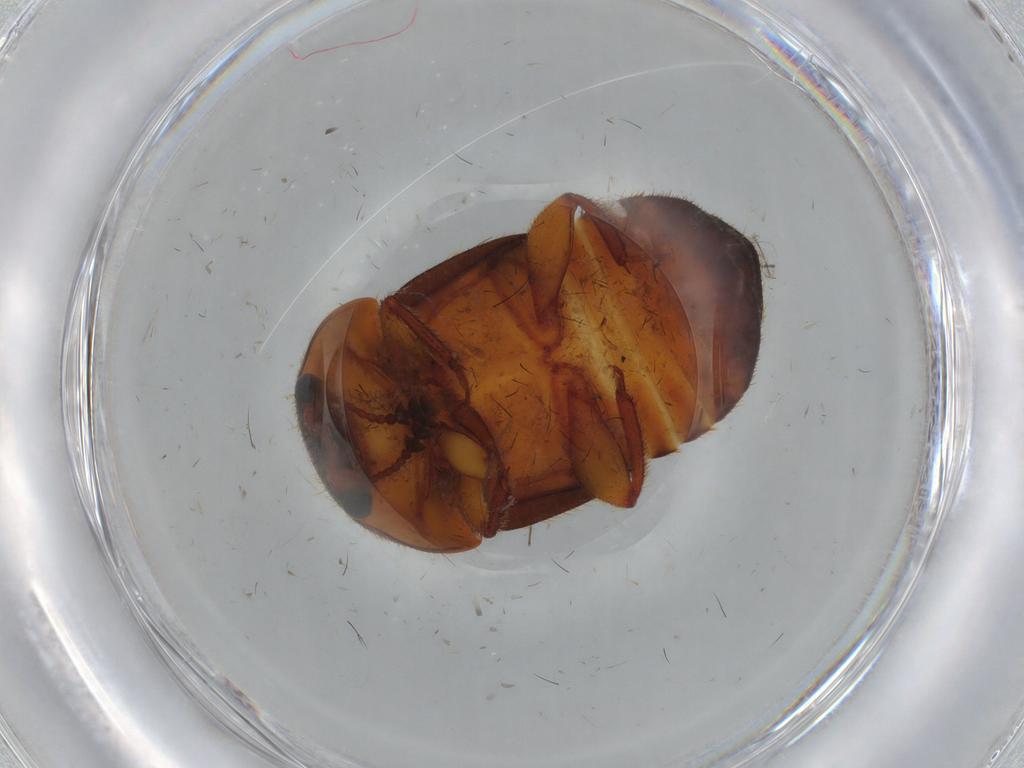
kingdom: Animalia
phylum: Arthropoda
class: Insecta
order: Coleoptera
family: Nitidulidae
